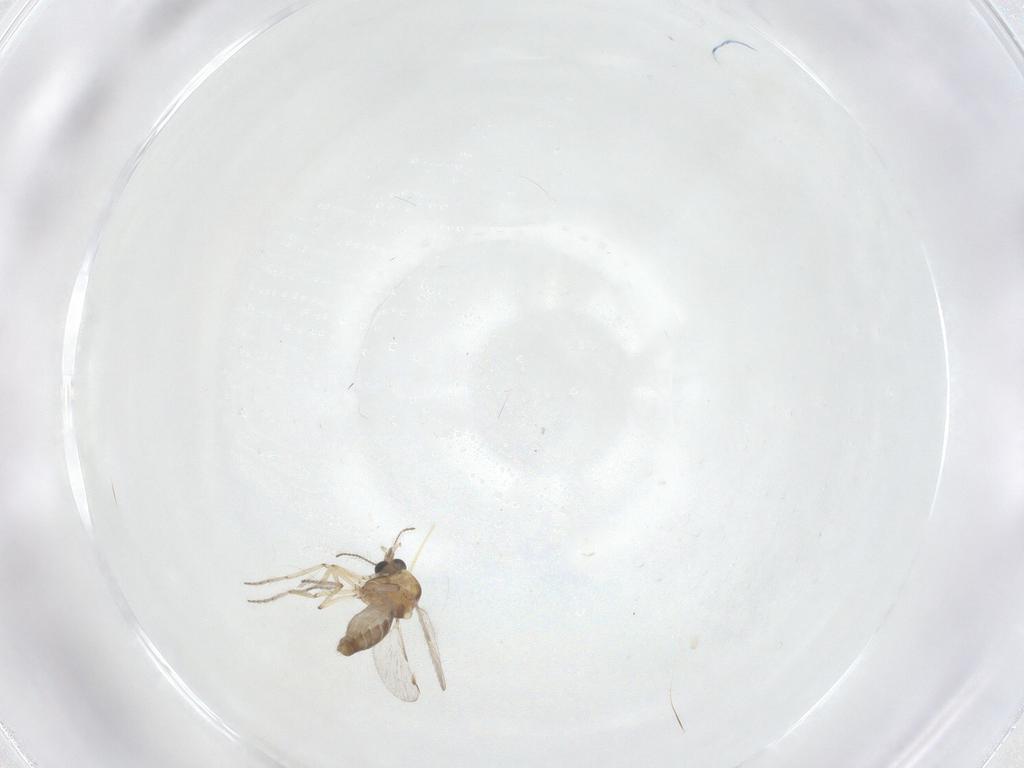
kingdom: Animalia
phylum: Arthropoda
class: Insecta
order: Diptera
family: Ceratopogonidae
